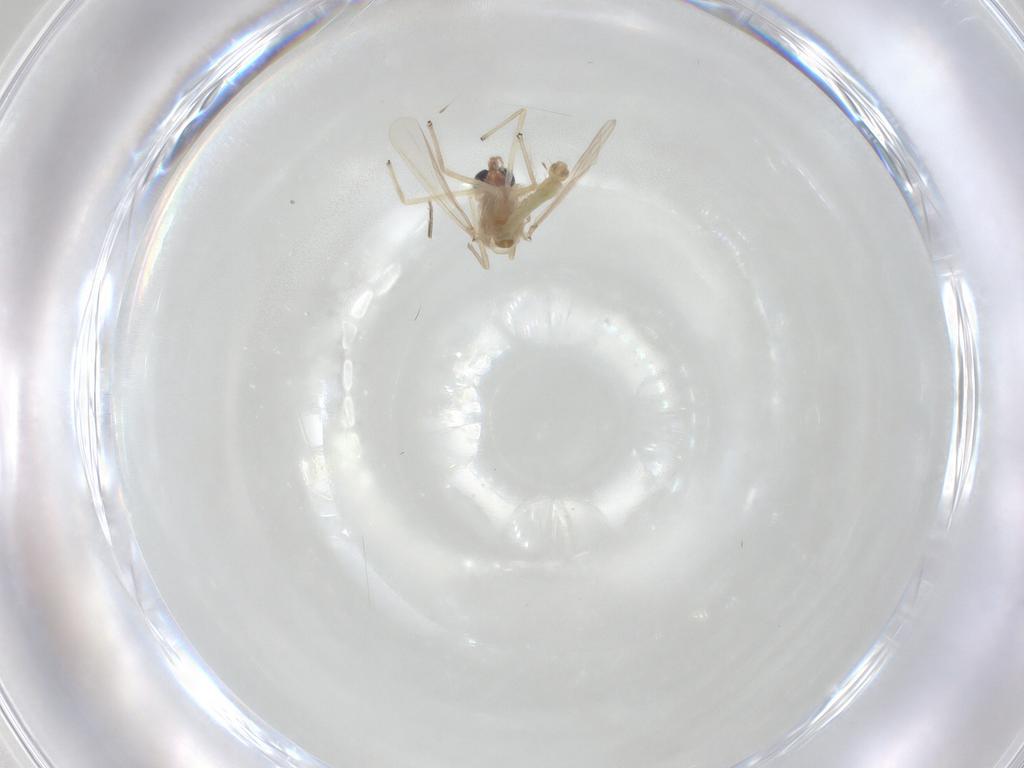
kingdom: Animalia
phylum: Arthropoda
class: Insecta
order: Diptera
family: Chironomidae
